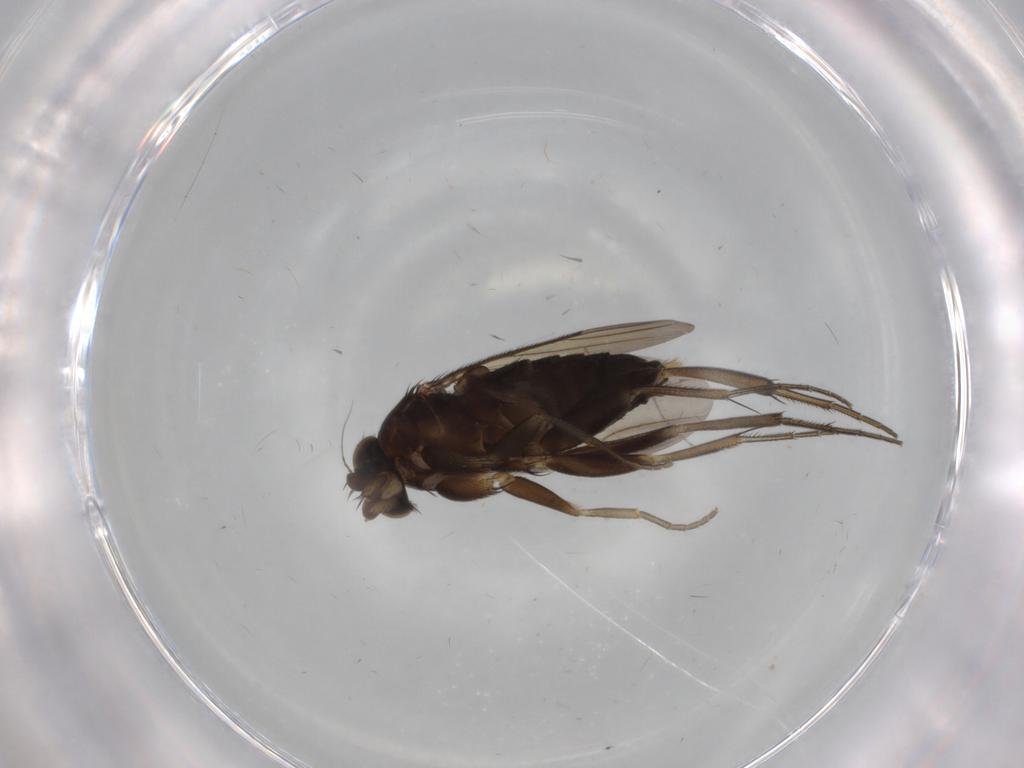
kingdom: Animalia
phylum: Arthropoda
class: Insecta
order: Diptera
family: Phoridae
